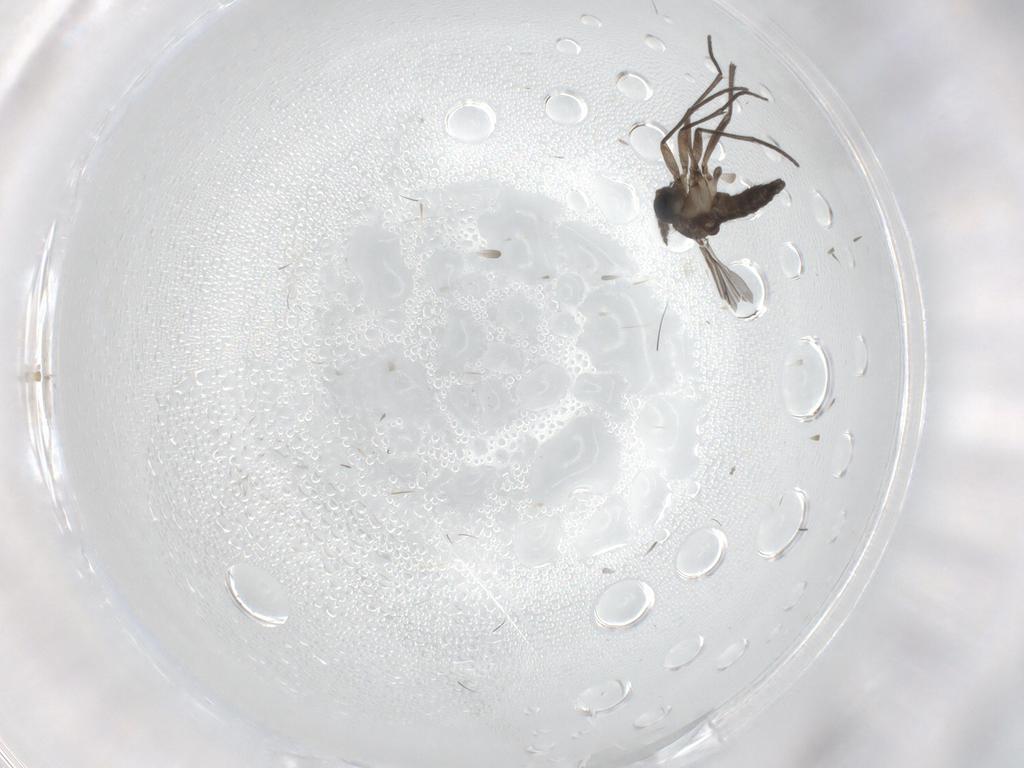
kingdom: Animalia
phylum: Arthropoda
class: Insecta
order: Diptera
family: Sciaridae
